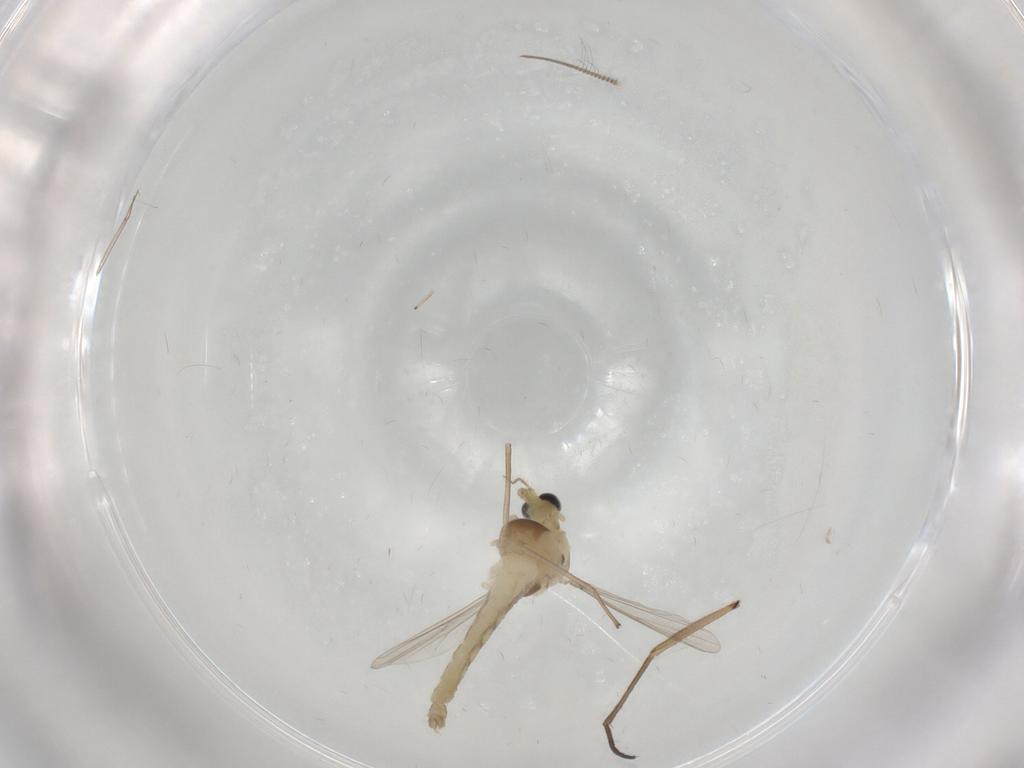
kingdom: Animalia
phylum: Arthropoda
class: Insecta
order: Diptera
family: Chironomidae
